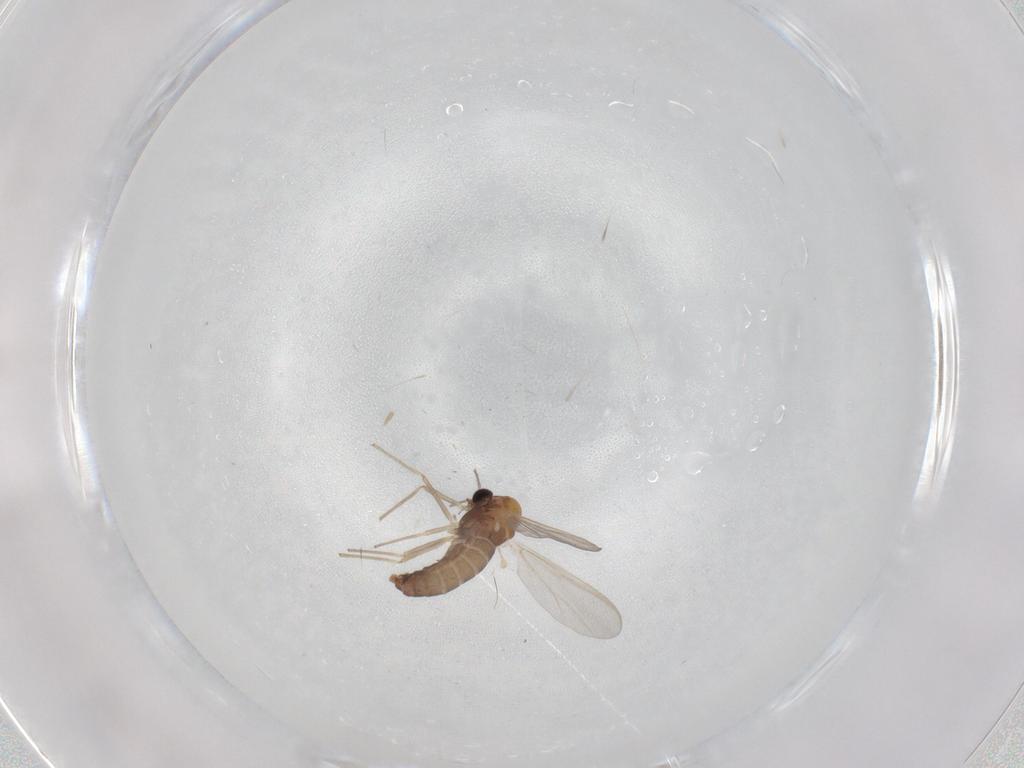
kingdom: Animalia
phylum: Arthropoda
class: Insecta
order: Diptera
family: Chironomidae
